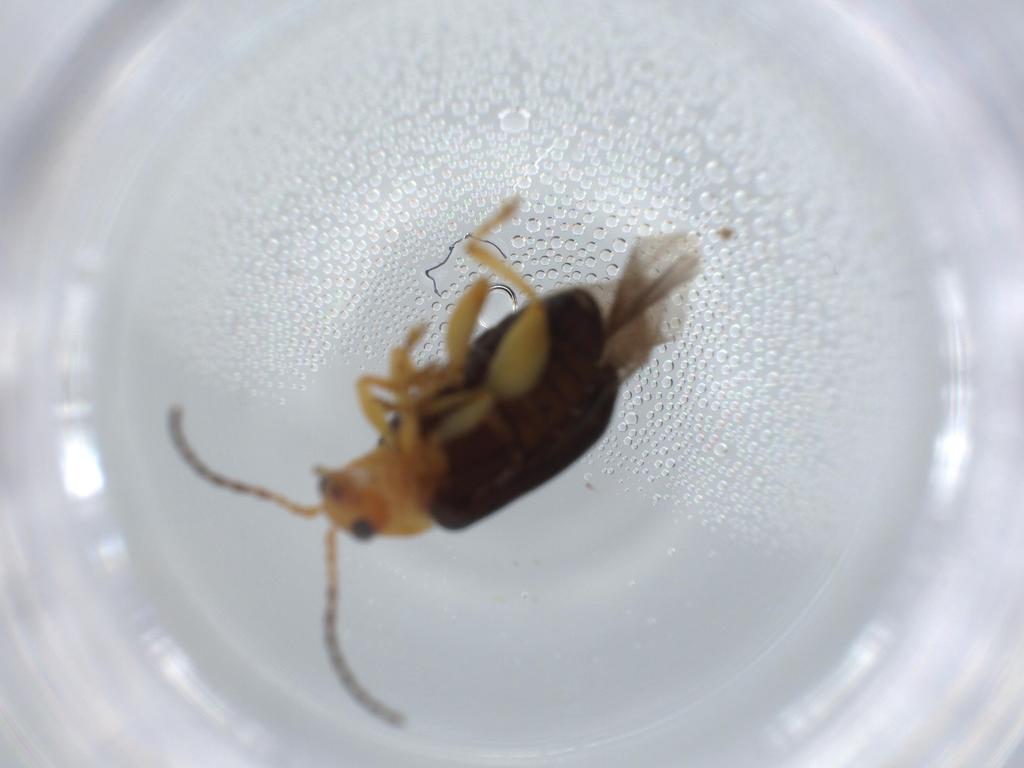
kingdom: Animalia
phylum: Arthropoda
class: Insecta
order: Coleoptera
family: Chrysomelidae
